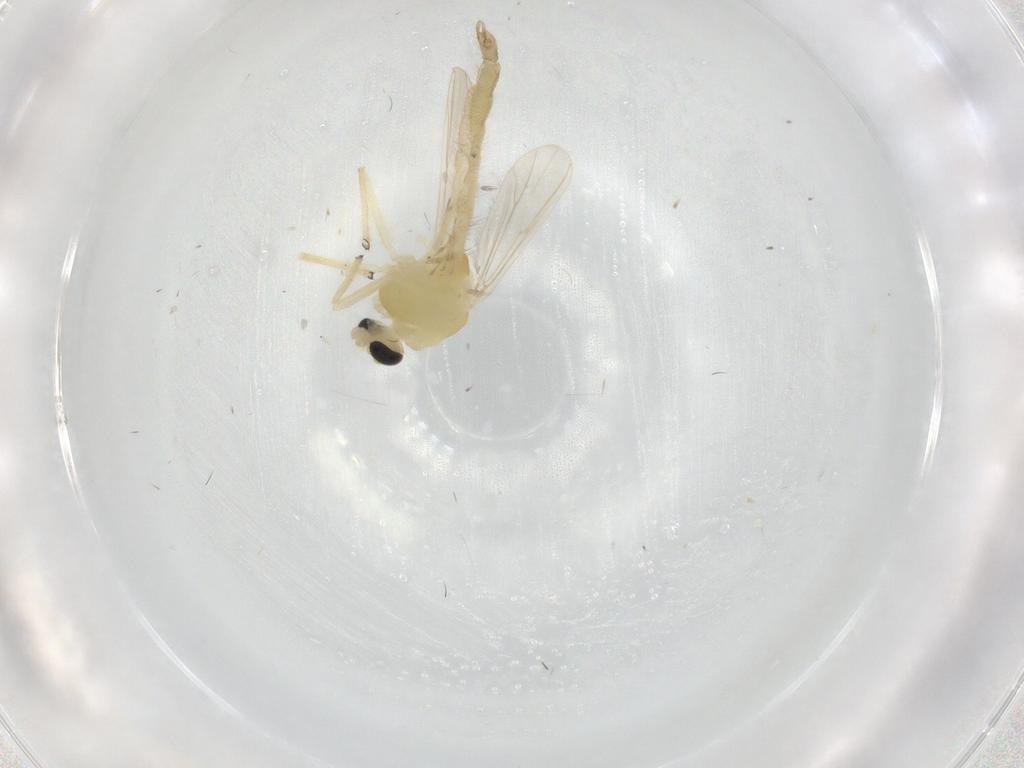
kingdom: Animalia
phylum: Arthropoda
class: Insecta
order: Diptera
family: Chironomidae
